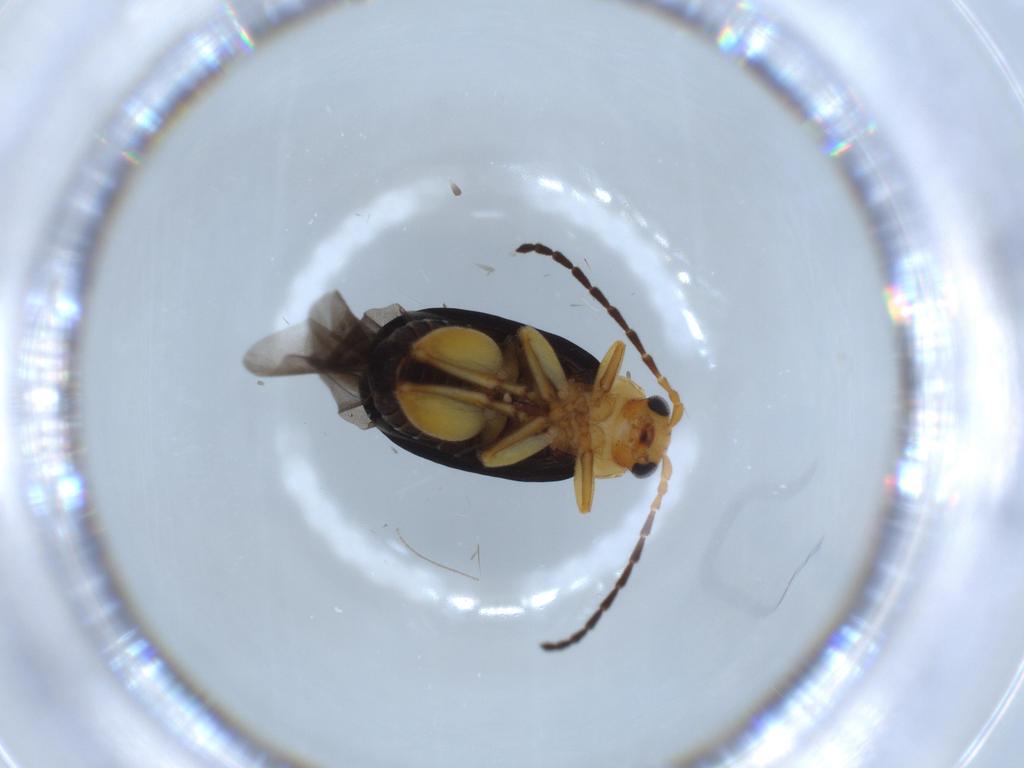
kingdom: Animalia
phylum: Arthropoda
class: Insecta
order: Coleoptera
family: Chrysomelidae
